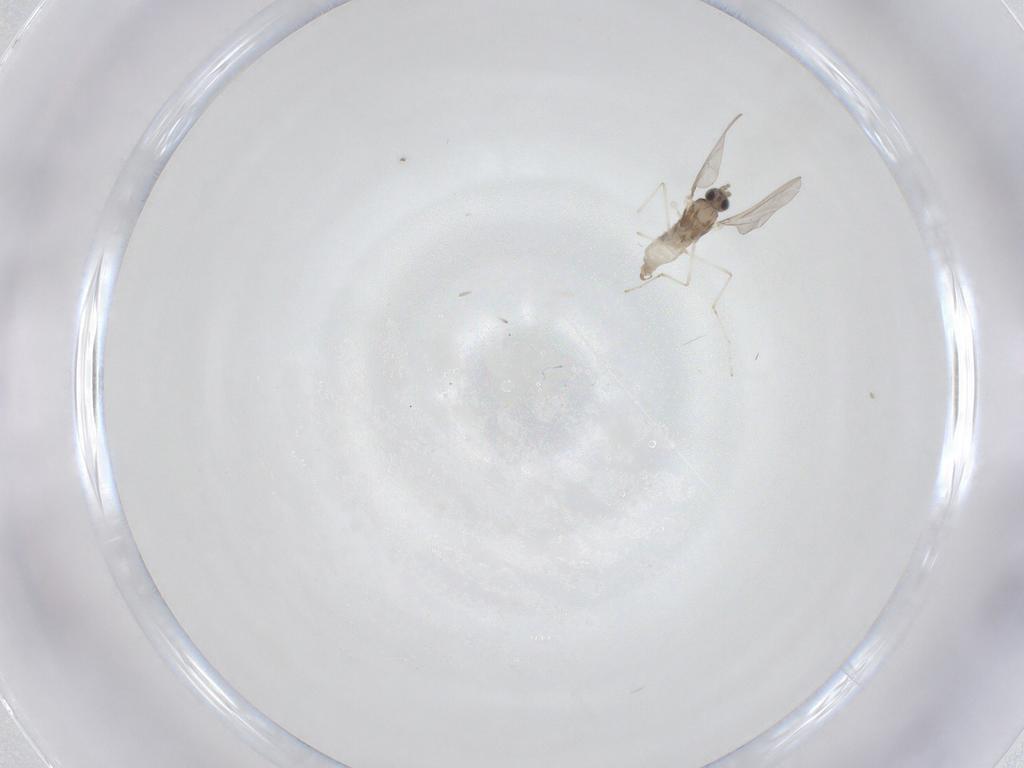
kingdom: Animalia
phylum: Arthropoda
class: Insecta
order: Diptera
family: Cecidomyiidae
